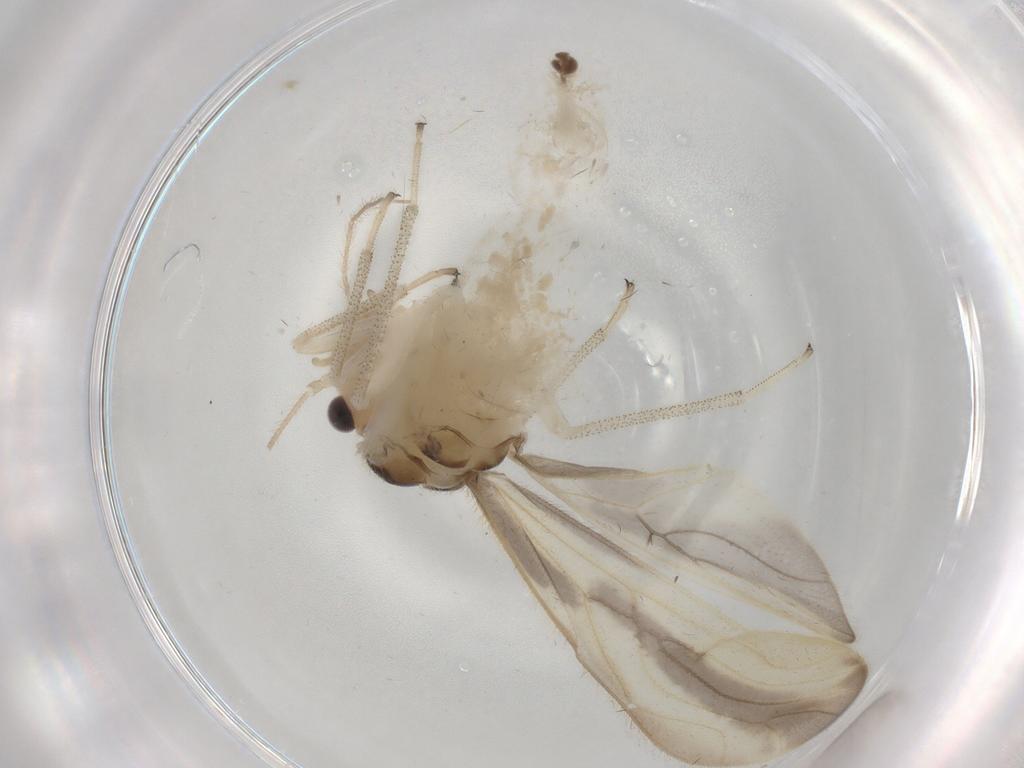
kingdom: Animalia
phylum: Arthropoda
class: Insecta
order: Psocodea
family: Amphipsocidae
